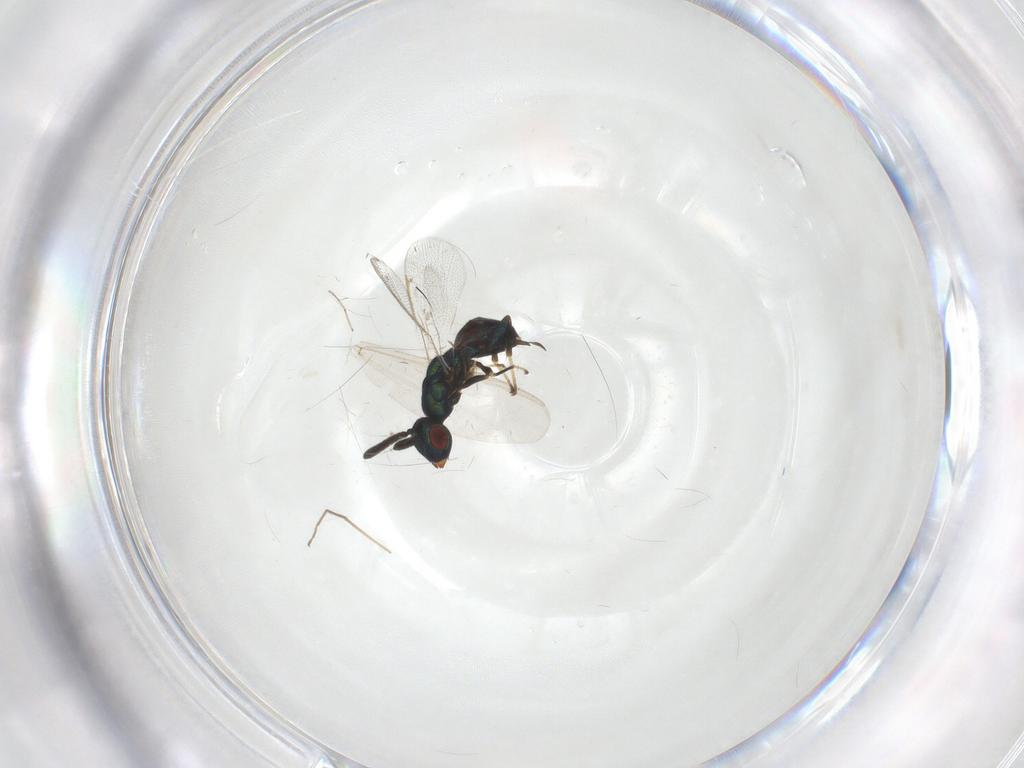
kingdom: Animalia
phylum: Arthropoda
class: Insecta
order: Hymenoptera
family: Torymidae
